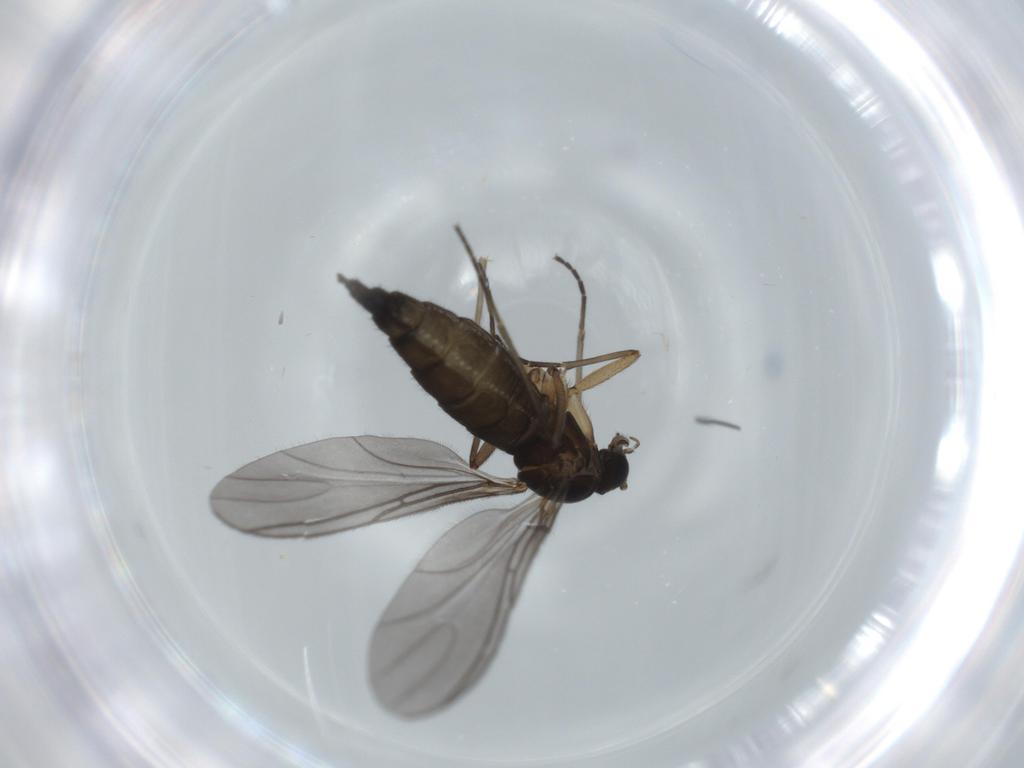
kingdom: Animalia
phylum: Arthropoda
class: Insecta
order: Diptera
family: Sciaridae
